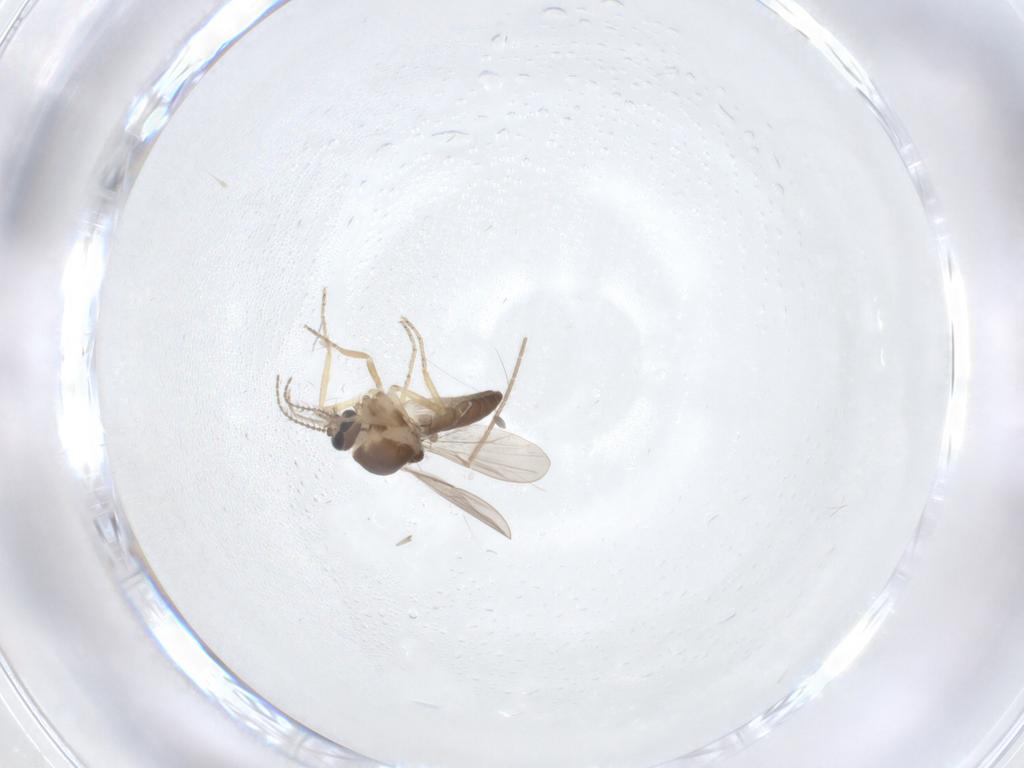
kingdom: Animalia
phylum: Arthropoda
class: Insecta
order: Diptera
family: Ceratopogonidae
